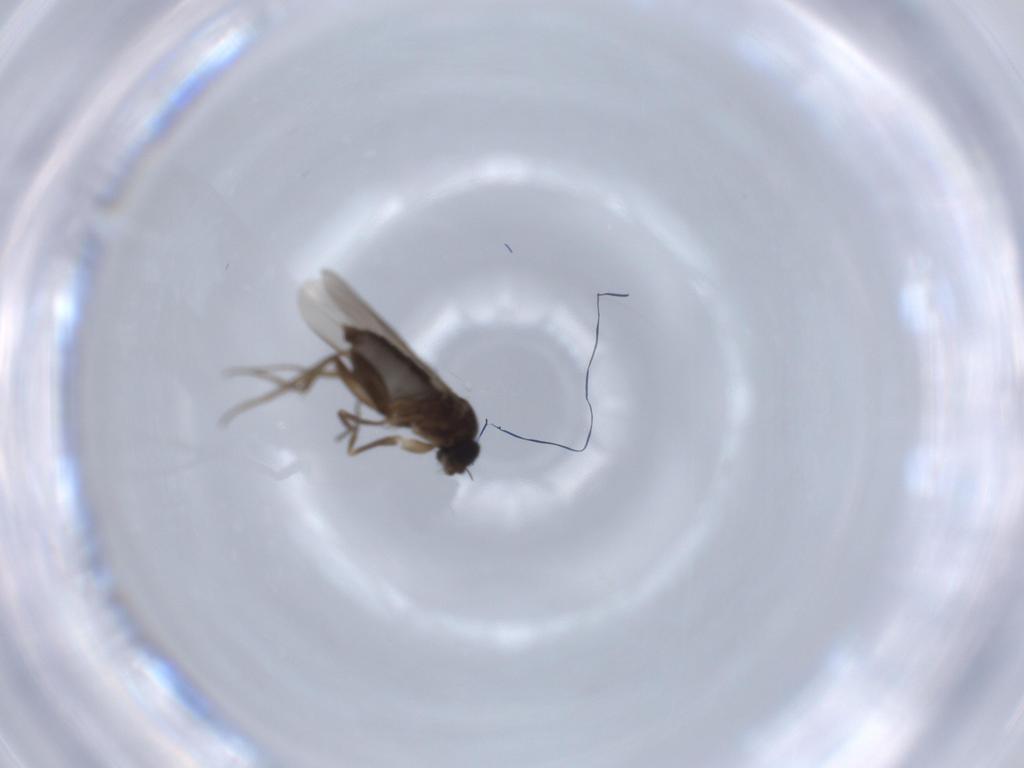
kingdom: Animalia
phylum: Arthropoda
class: Insecta
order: Diptera
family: Phoridae
